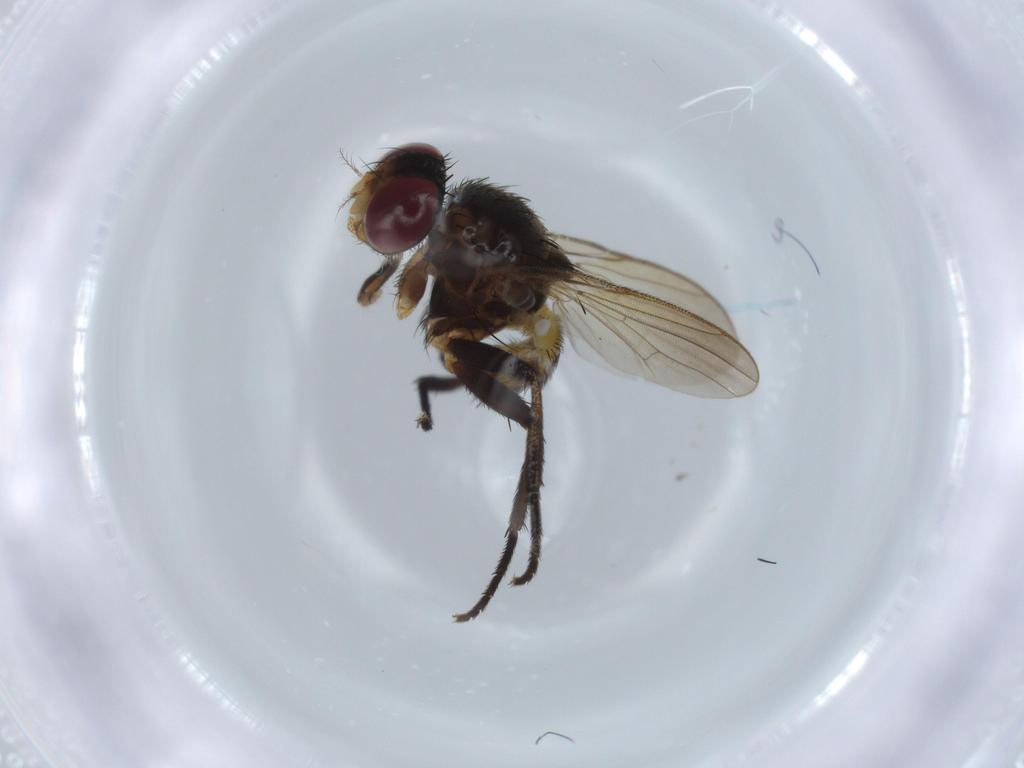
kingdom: Animalia
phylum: Arthropoda
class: Insecta
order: Diptera
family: Anthomyiidae
